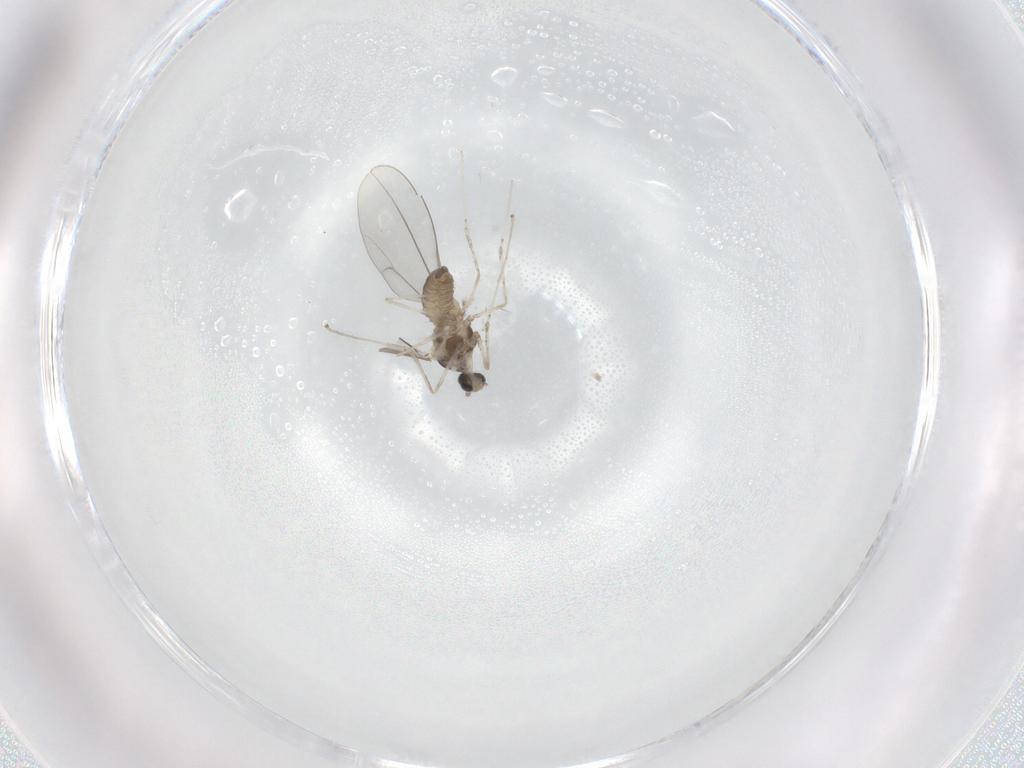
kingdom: Animalia
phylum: Arthropoda
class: Insecta
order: Diptera
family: Cecidomyiidae
